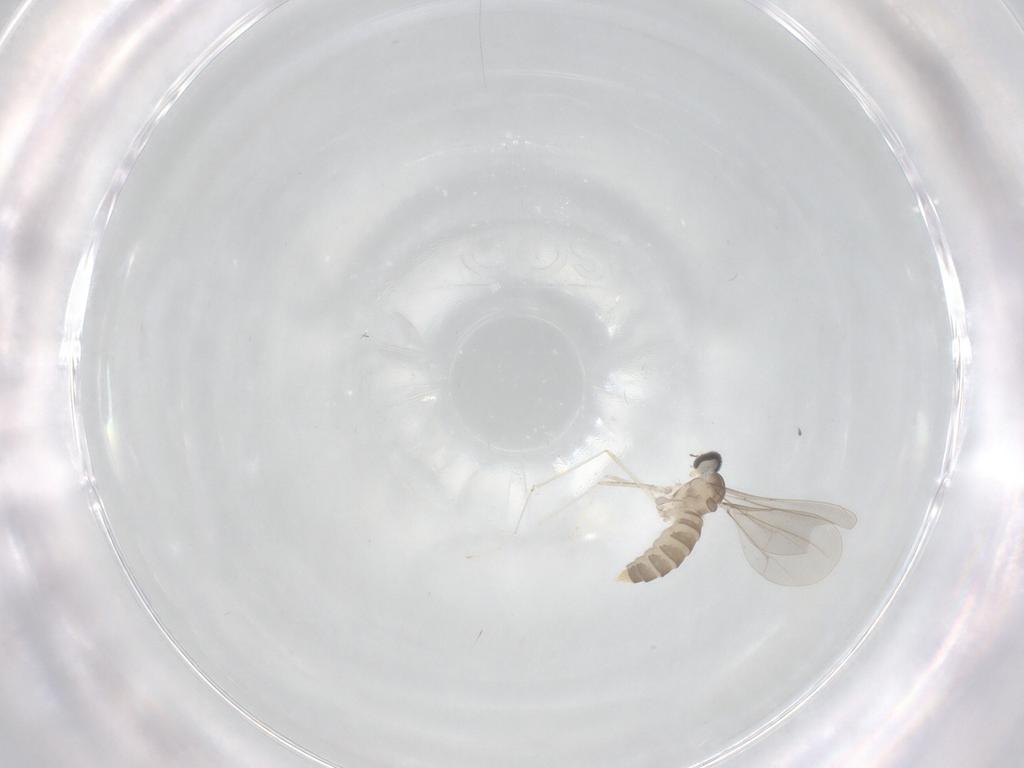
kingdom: Animalia
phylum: Arthropoda
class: Insecta
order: Diptera
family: Cecidomyiidae
